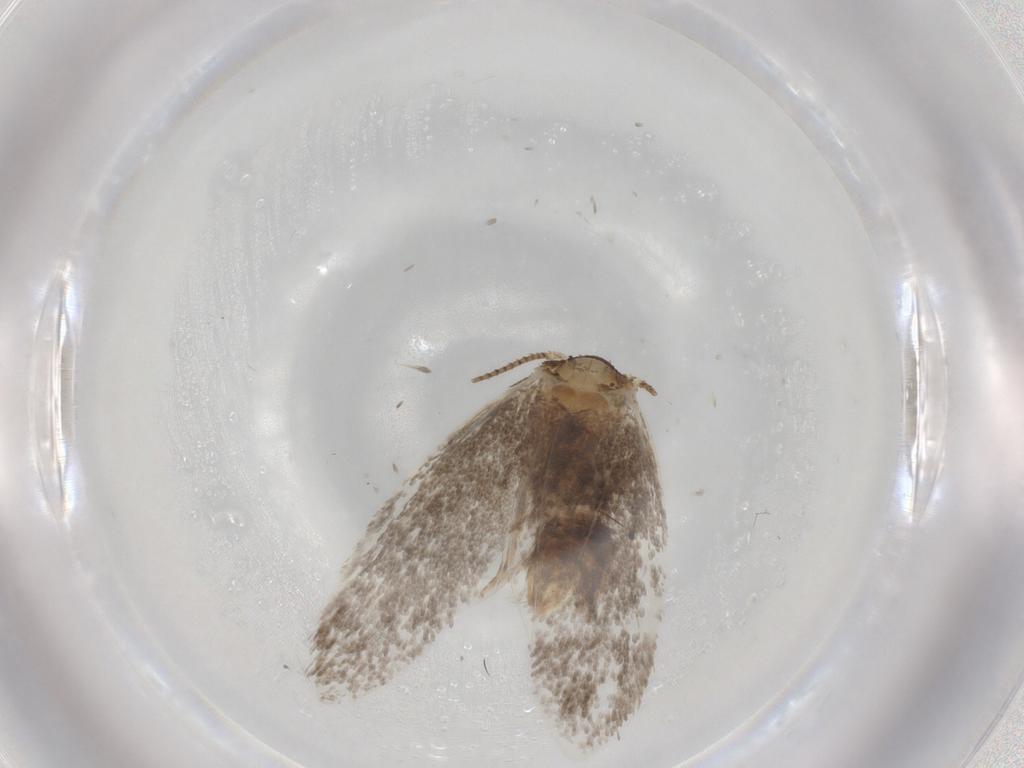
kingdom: Animalia
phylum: Arthropoda
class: Insecta
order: Lepidoptera
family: Dryadaulidae
